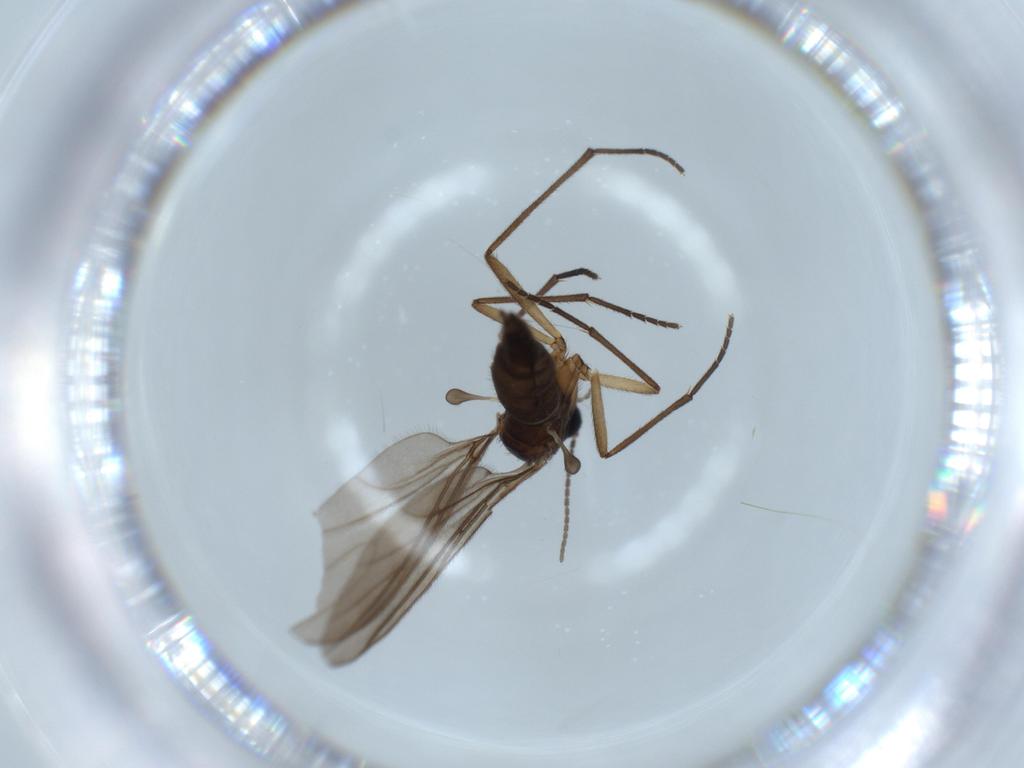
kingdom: Animalia
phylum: Arthropoda
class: Insecta
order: Diptera
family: Sciaridae
